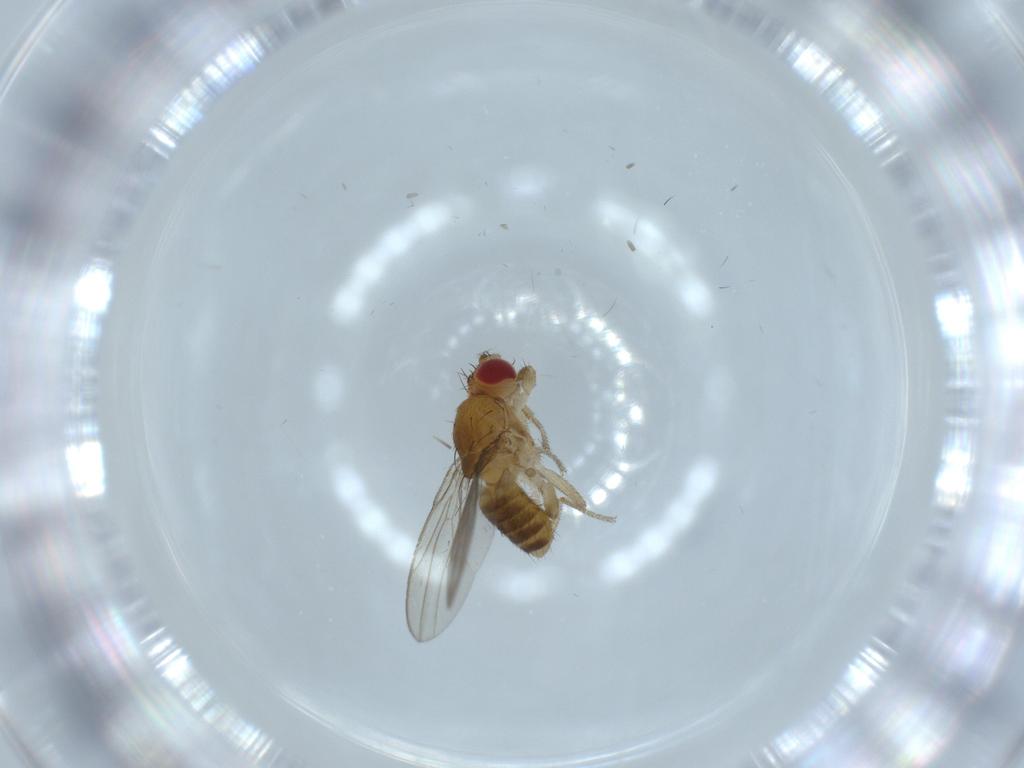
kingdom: Animalia
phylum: Arthropoda
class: Insecta
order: Diptera
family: Drosophilidae
